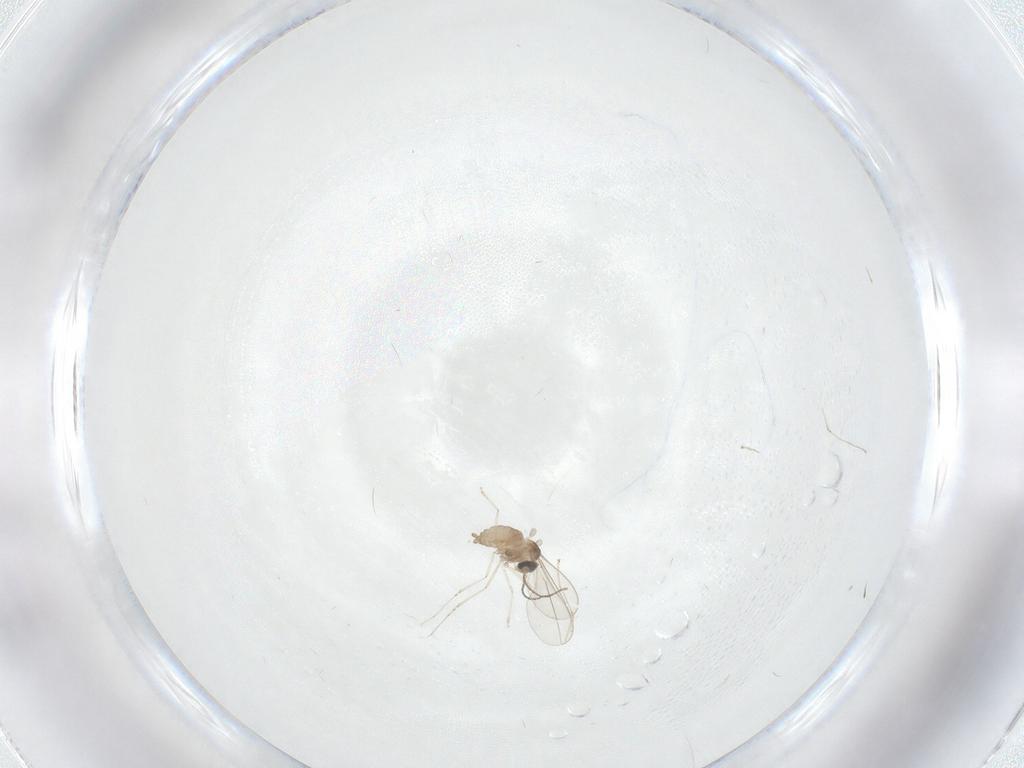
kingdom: Animalia
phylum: Arthropoda
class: Insecta
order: Diptera
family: Cecidomyiidae
